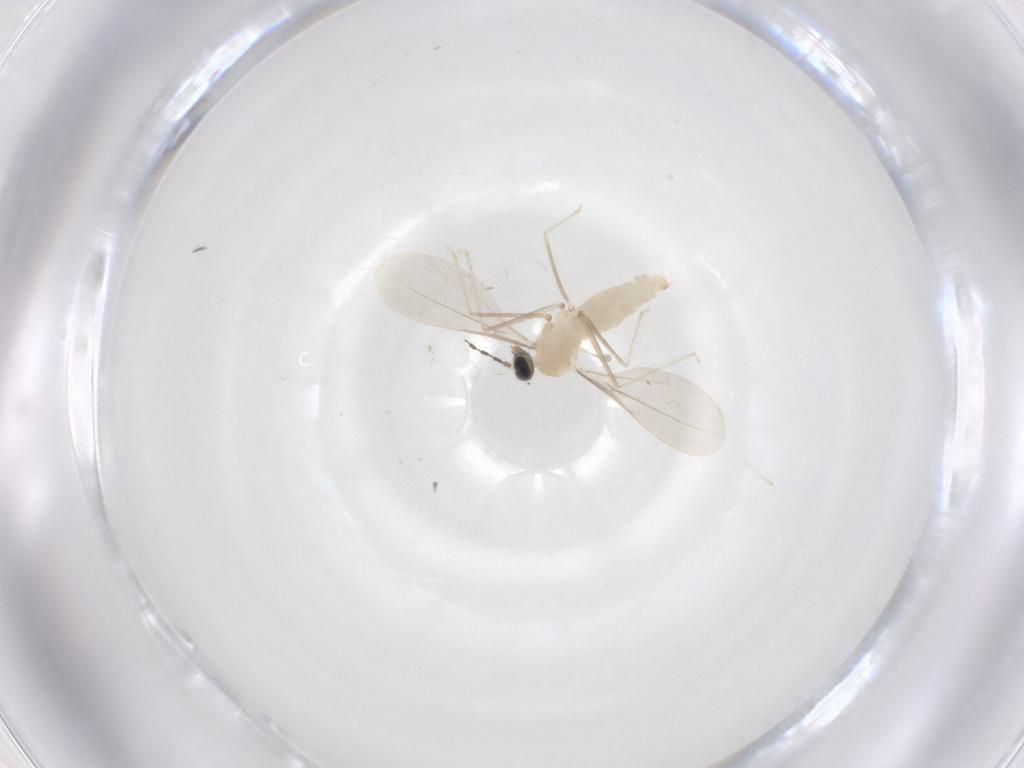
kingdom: Animalia
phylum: Arthropoda
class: Insecta
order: Diptera
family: Cecidomyiidae
